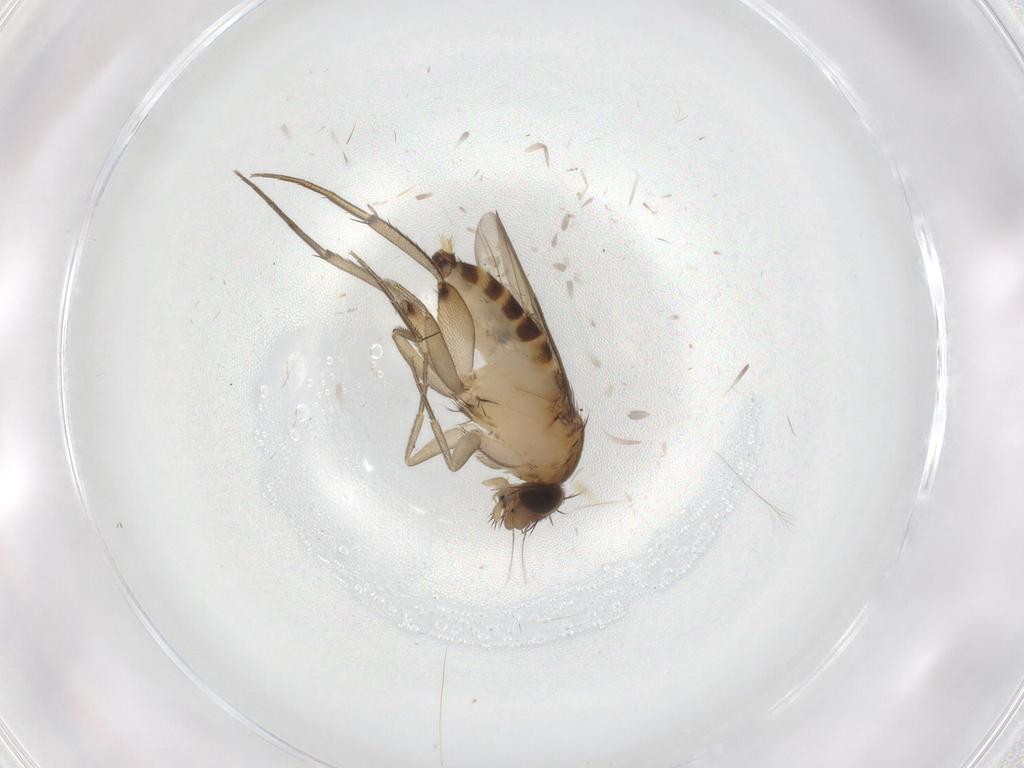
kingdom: Animalia
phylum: Arthropoda
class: Insecta
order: Diptera
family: Phoridae
